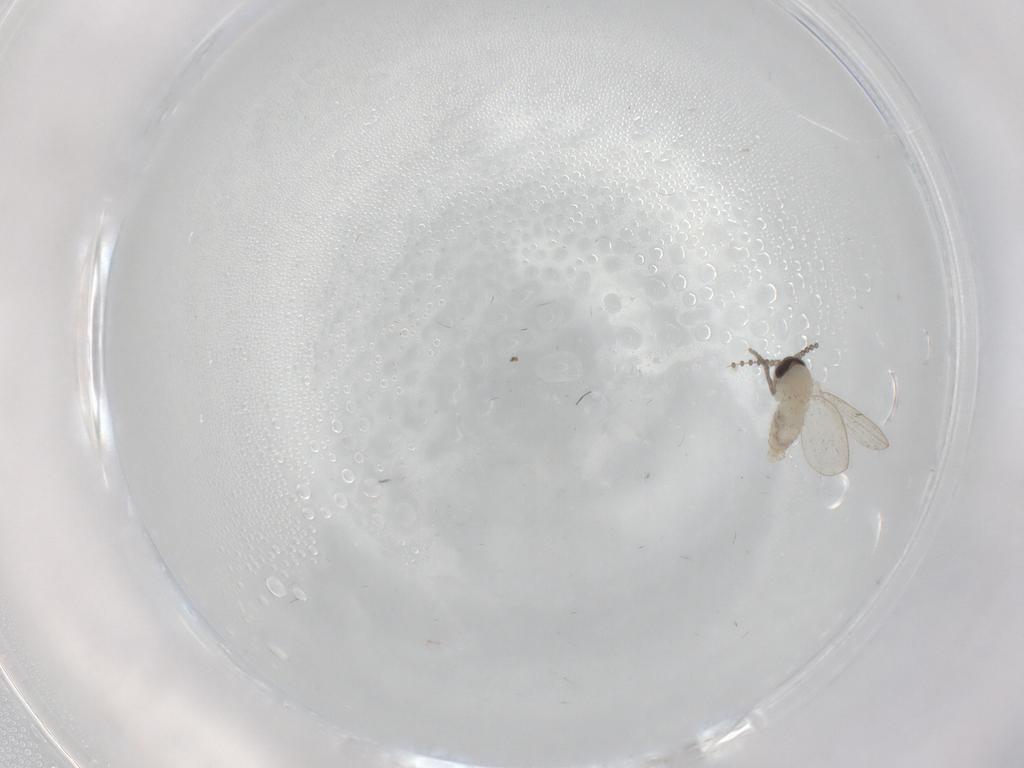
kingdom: Animalia
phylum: Arthropoda
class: Insecta
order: Diptera
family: Psychodidae
